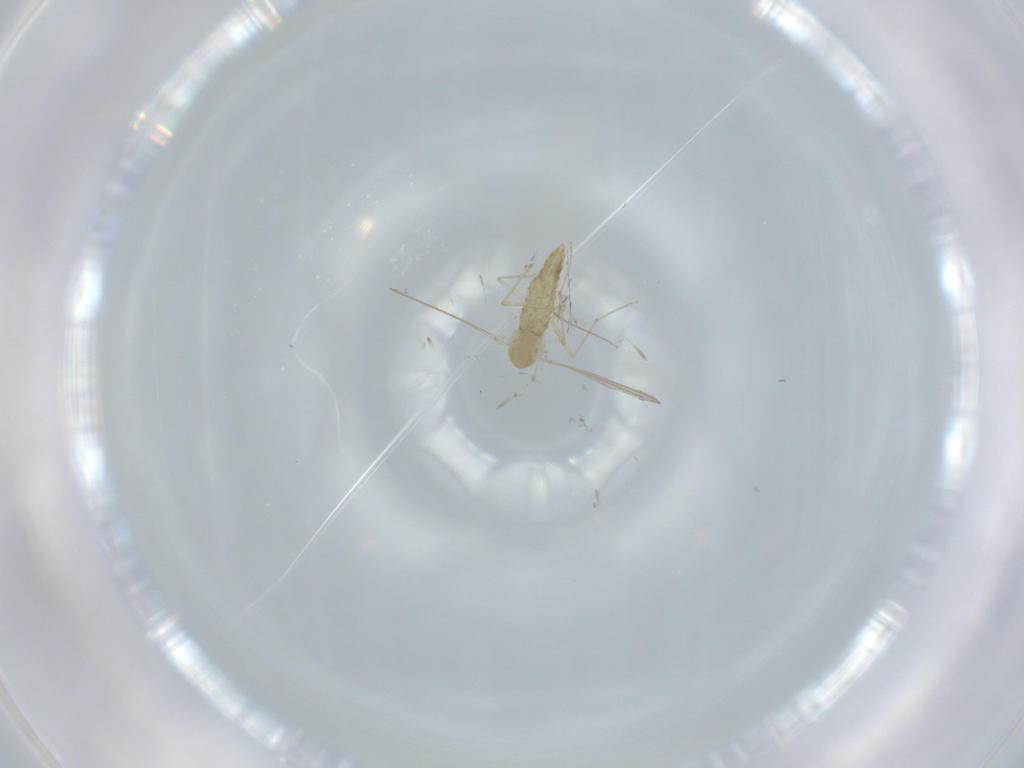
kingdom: Animalia
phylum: Arthropoda
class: Insecta
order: Diptera
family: Chironomidae
